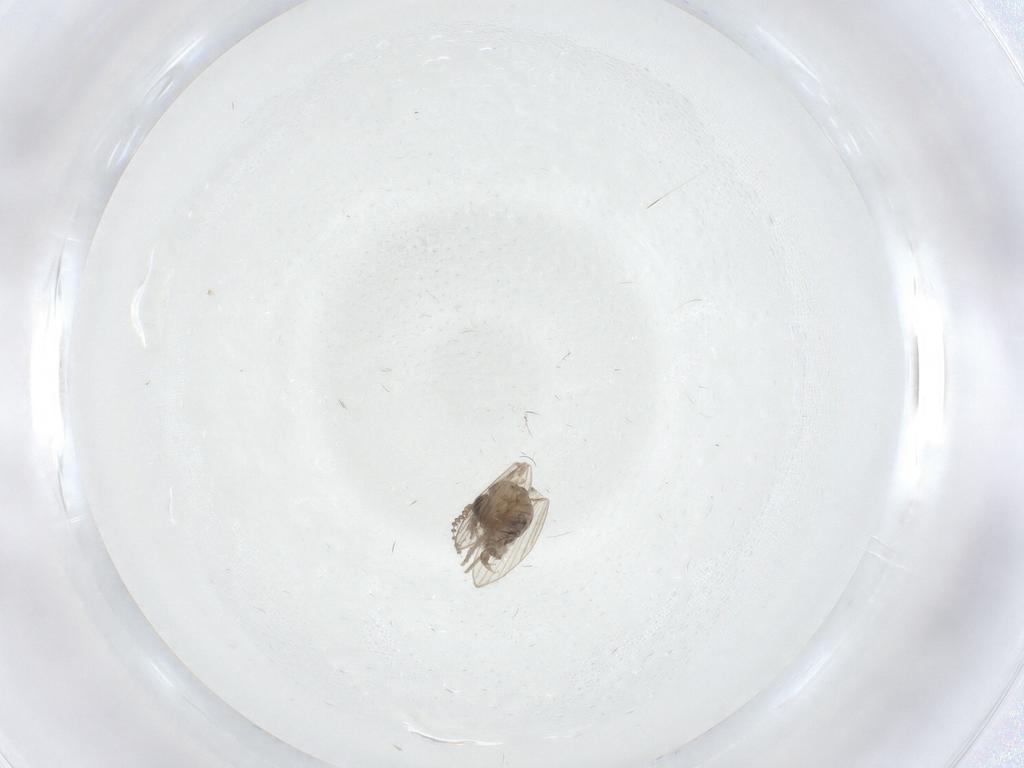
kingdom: Animalia
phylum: Arthropoda
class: Insecta
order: Diptera
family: Psychodidae
